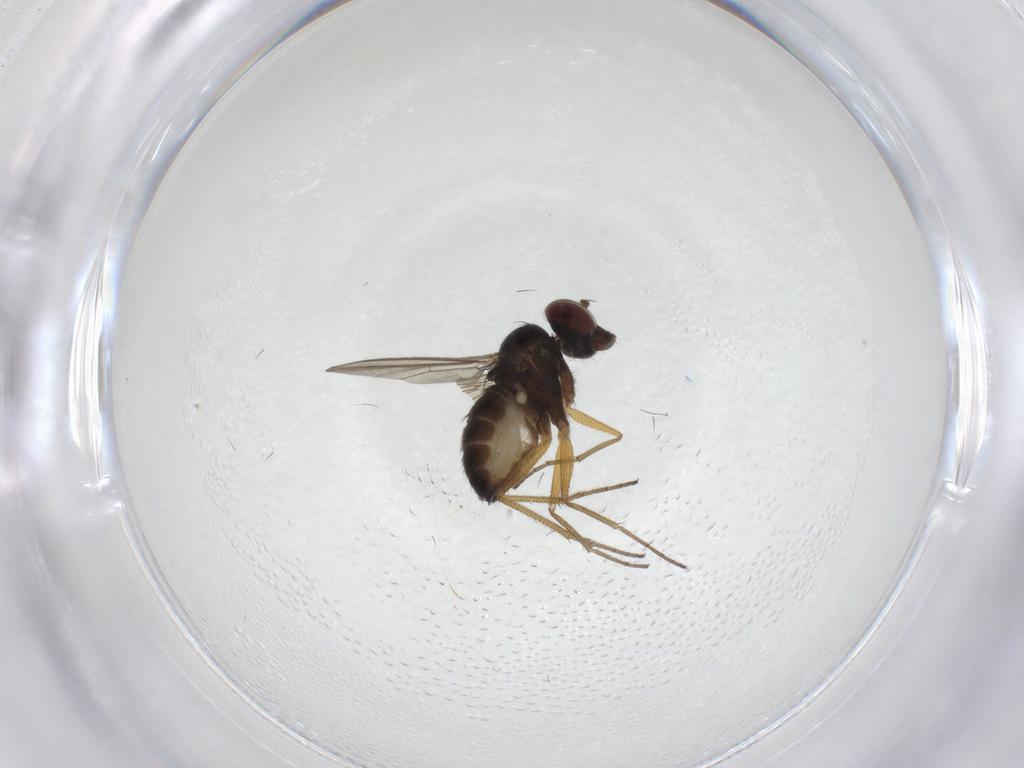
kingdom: Animalia
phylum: Arthropoda
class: Insecta
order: Diptera
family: Dolichopodidae
